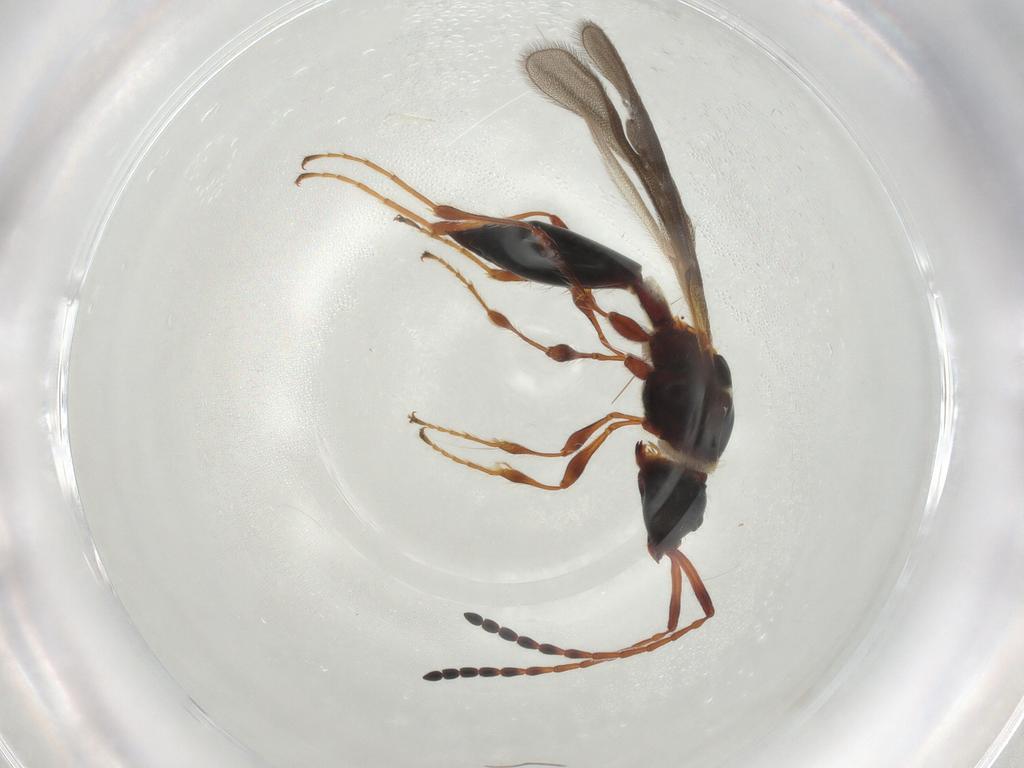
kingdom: Animalia
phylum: Arthropoda
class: Insecta
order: Hymenoptera
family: Diapriidae
